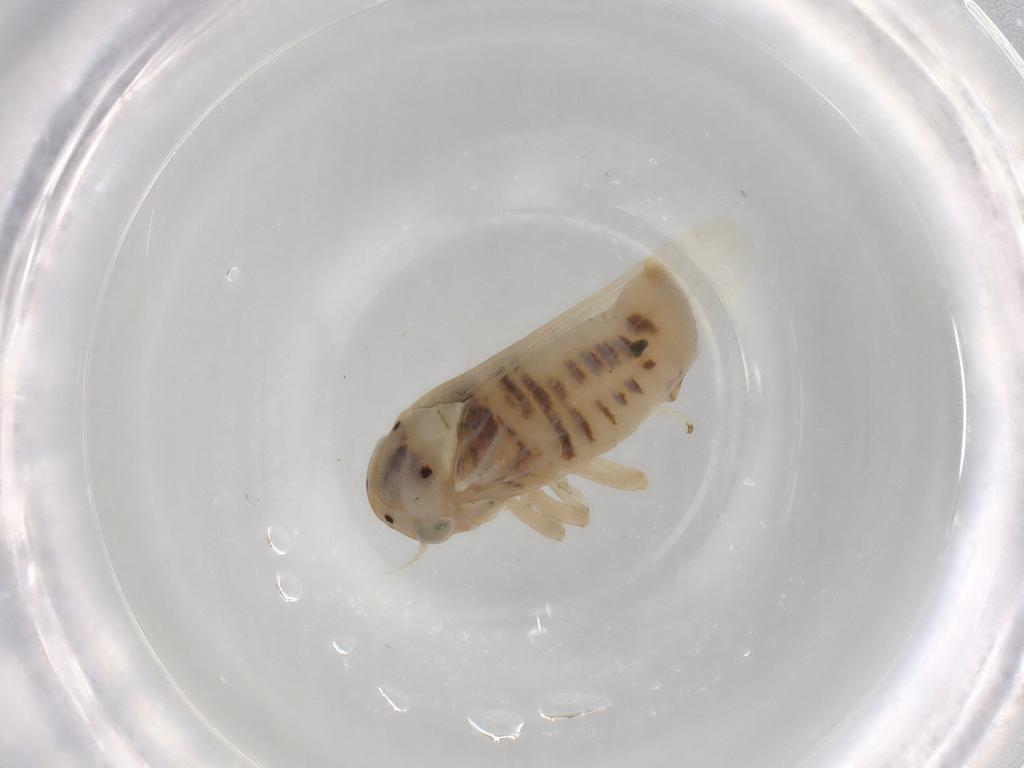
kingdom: Animalia
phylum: Arthropoda
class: Insecta
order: Hemiptera
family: Cicadellidae
